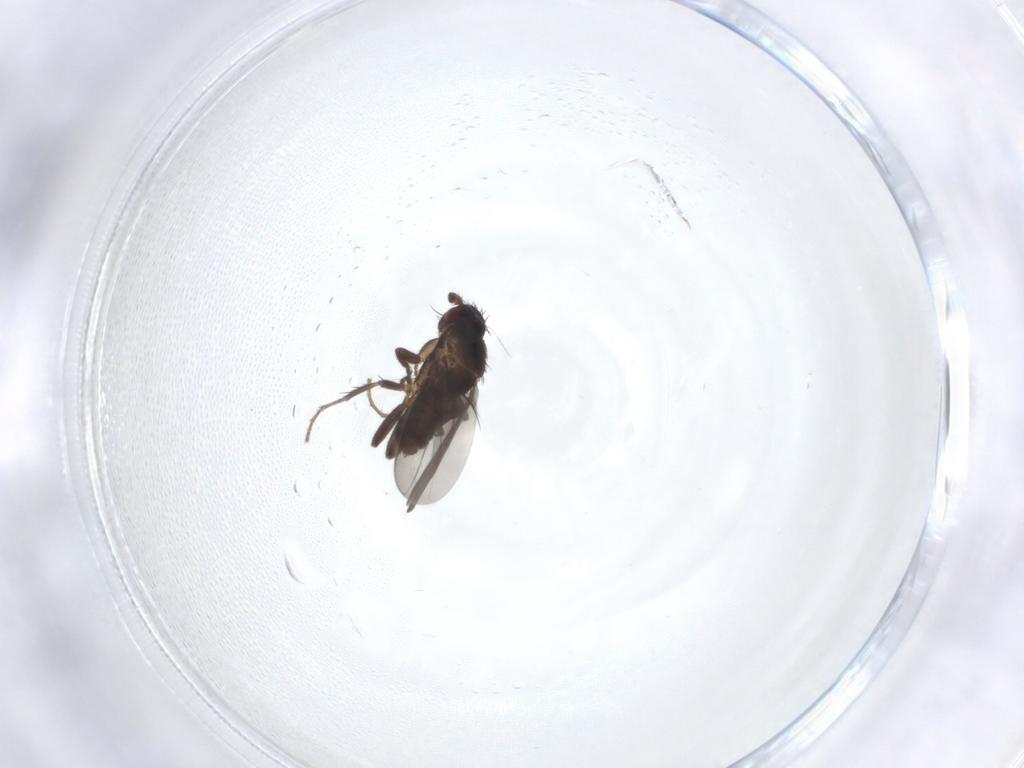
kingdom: Animalia
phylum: Arthropoda
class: Insecta
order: Diptera
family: Sphaeroceridae
